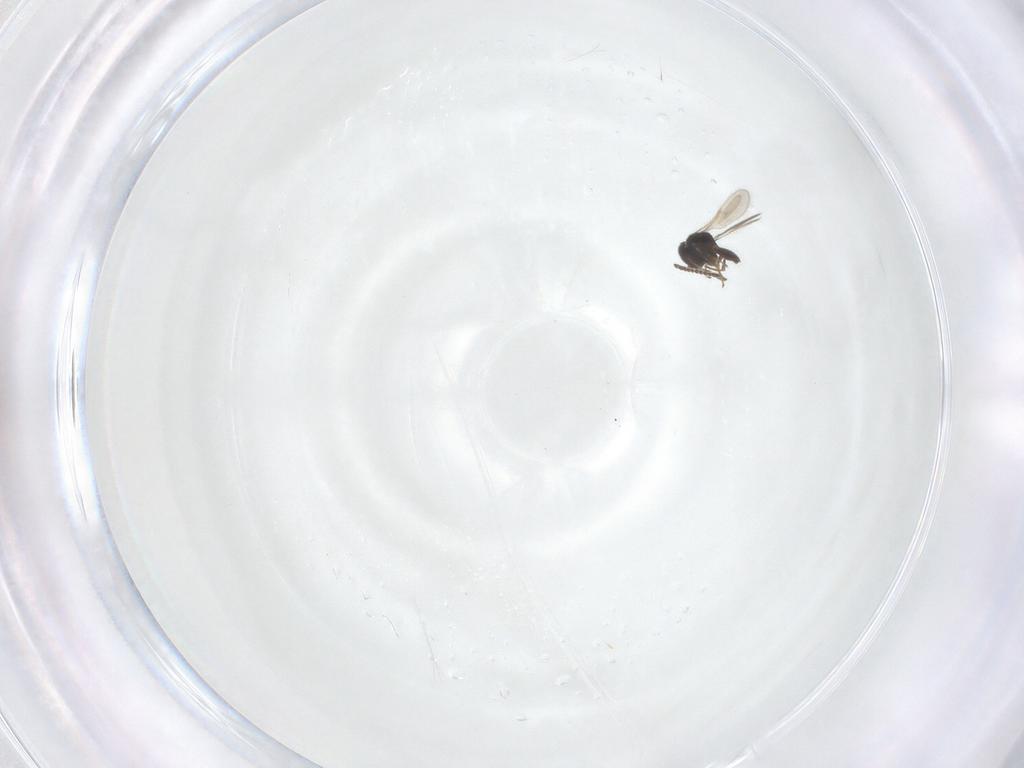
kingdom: Animalia
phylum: Arthropoda
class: Insecta
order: Hymenoptera
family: Scelionidae
